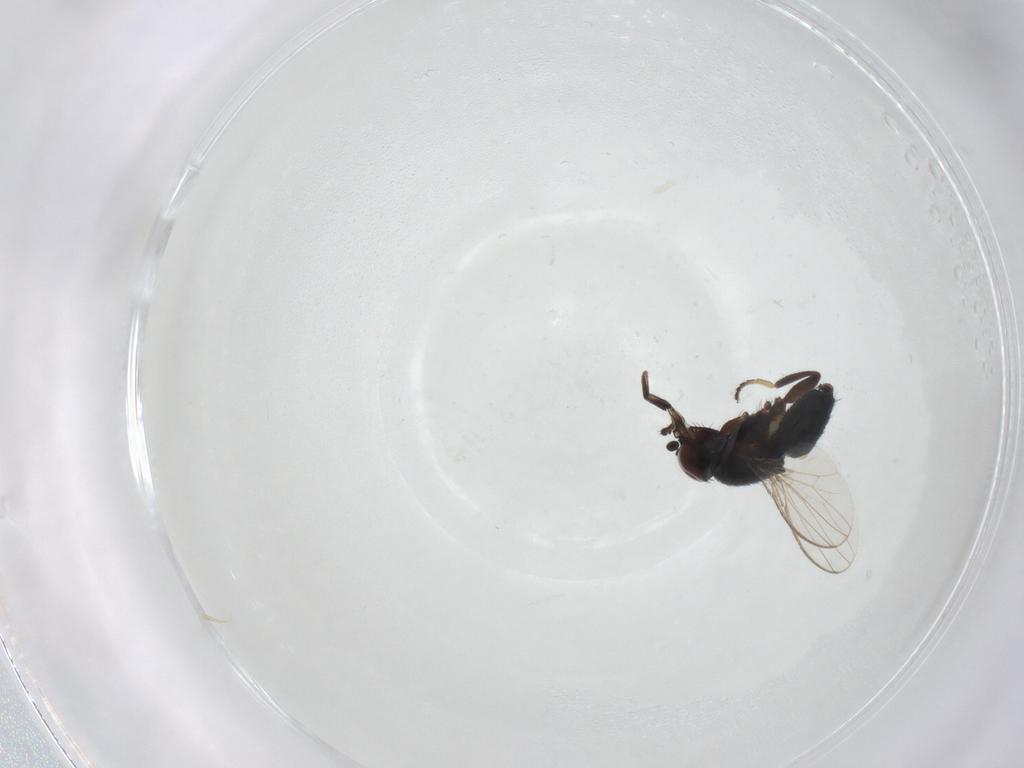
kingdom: Animalia
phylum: Arthropoda
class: Insecta
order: Diptera
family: Milichiidae
